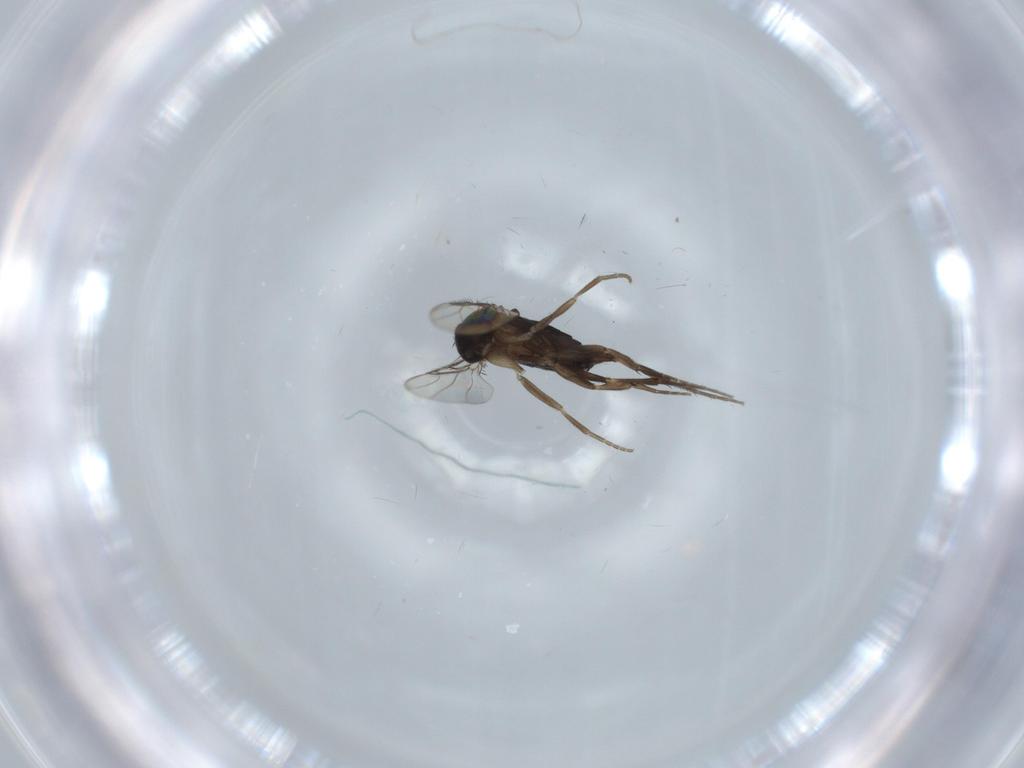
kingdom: Animalia
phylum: Arthropoda
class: Insecta
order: Diptera
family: Phoridae
